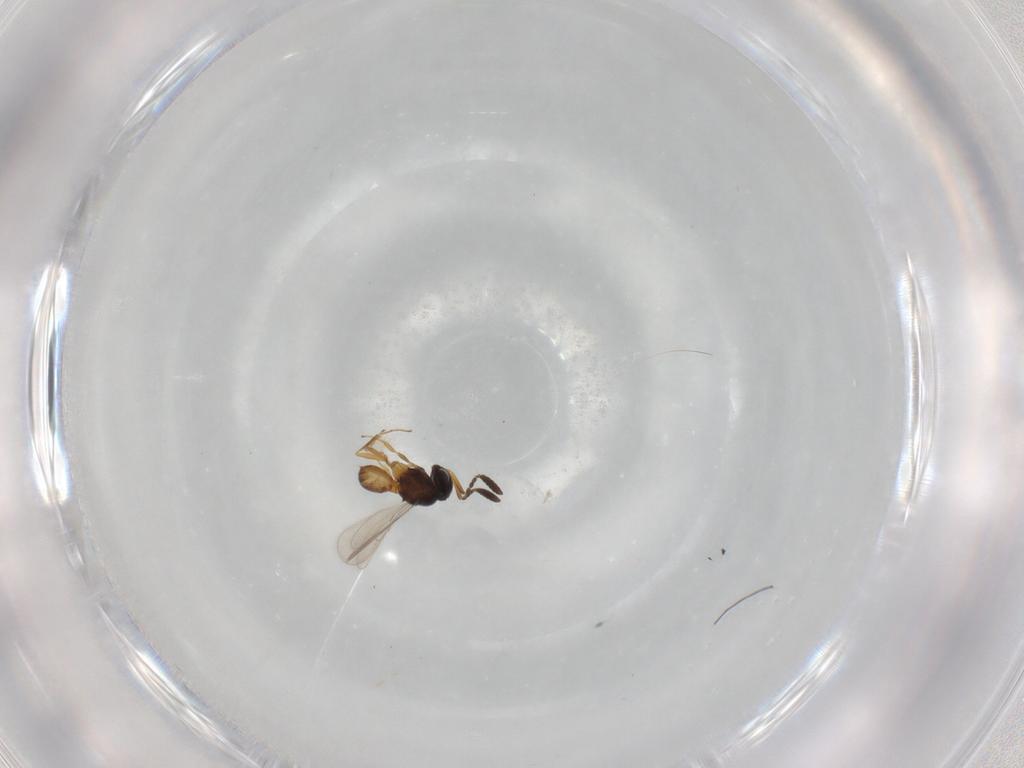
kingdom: Animalia
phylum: Arthropoda
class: Insecta
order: Hymenoptera
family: Scelionidae
